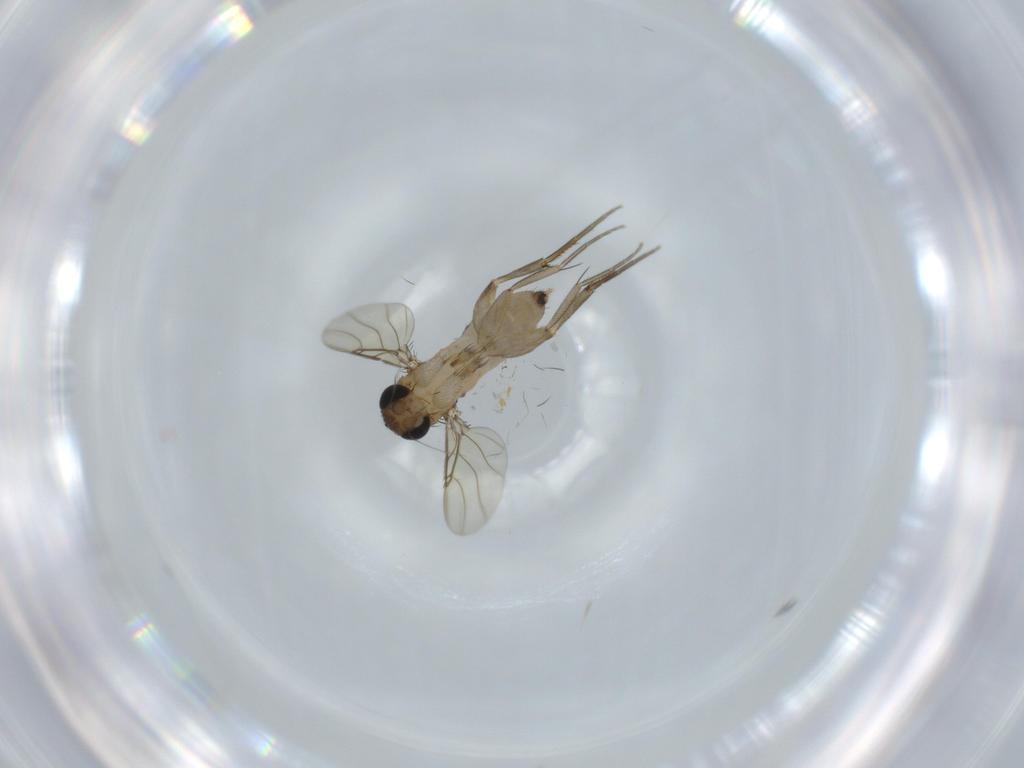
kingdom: Animalia
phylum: Arthropoda
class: Insecta
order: Diptera
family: Phoridae
